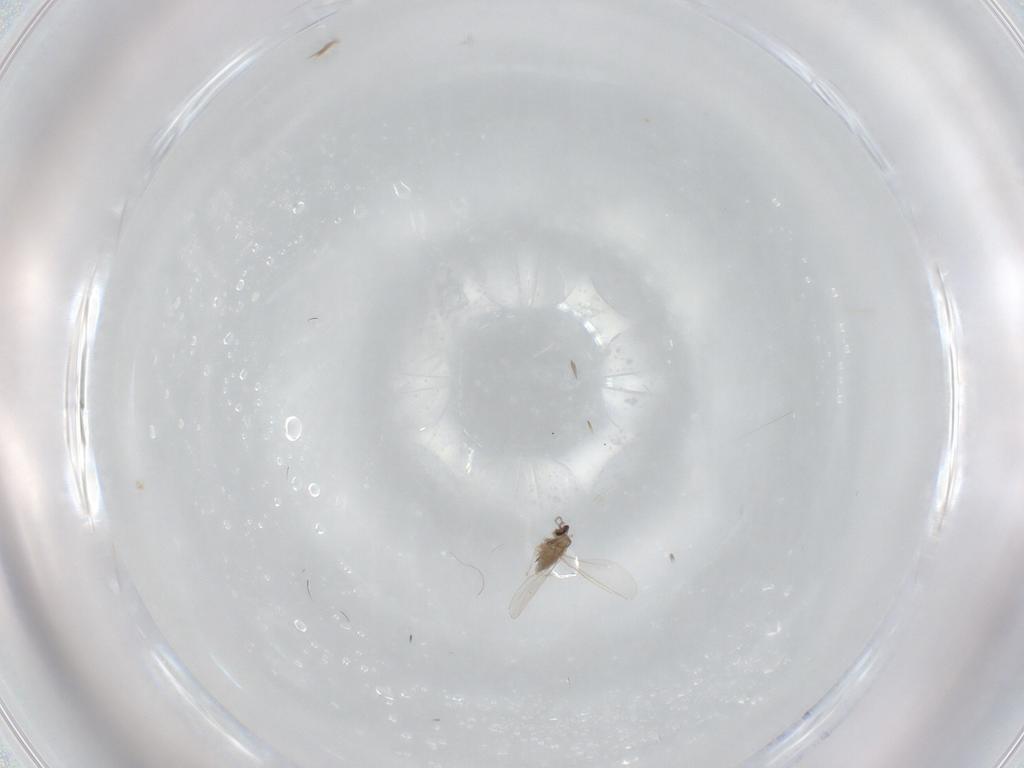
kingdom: Animalia
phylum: Arthropoda
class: Insecta
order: Diptera
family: Cecidomyiidae
